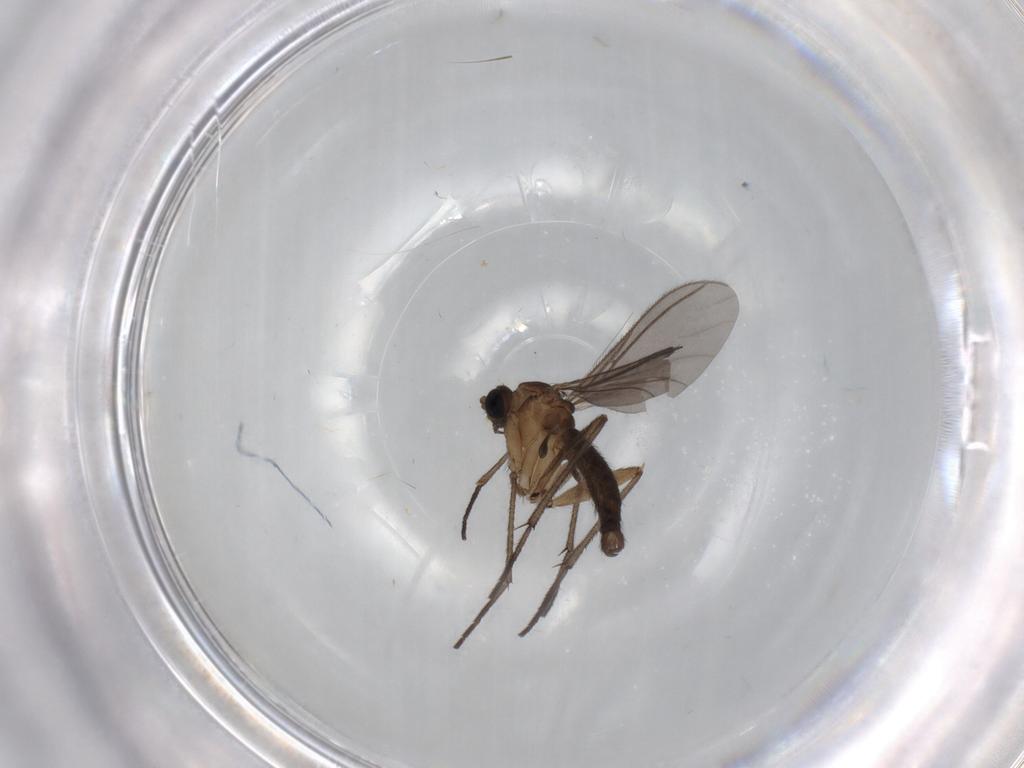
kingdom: Animalia
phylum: Arthropoda
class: Insecta
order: Diptera
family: Sciaridae
